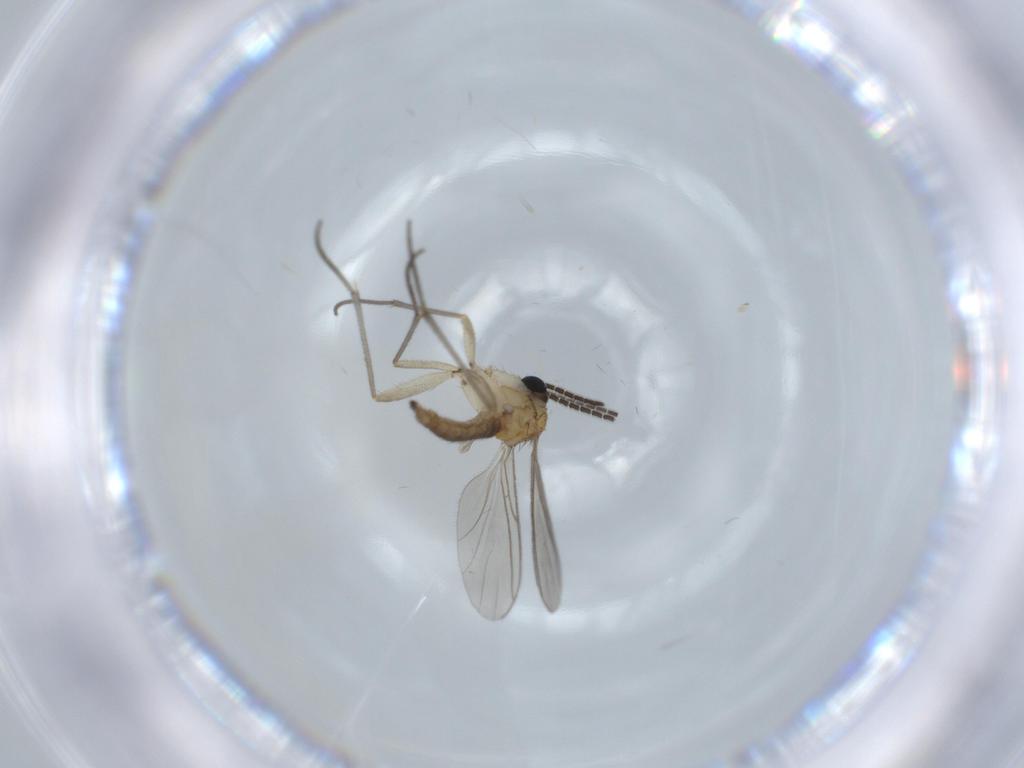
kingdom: Animalia
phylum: Arthropoda
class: Insecta
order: Diptera
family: Sciaridae
